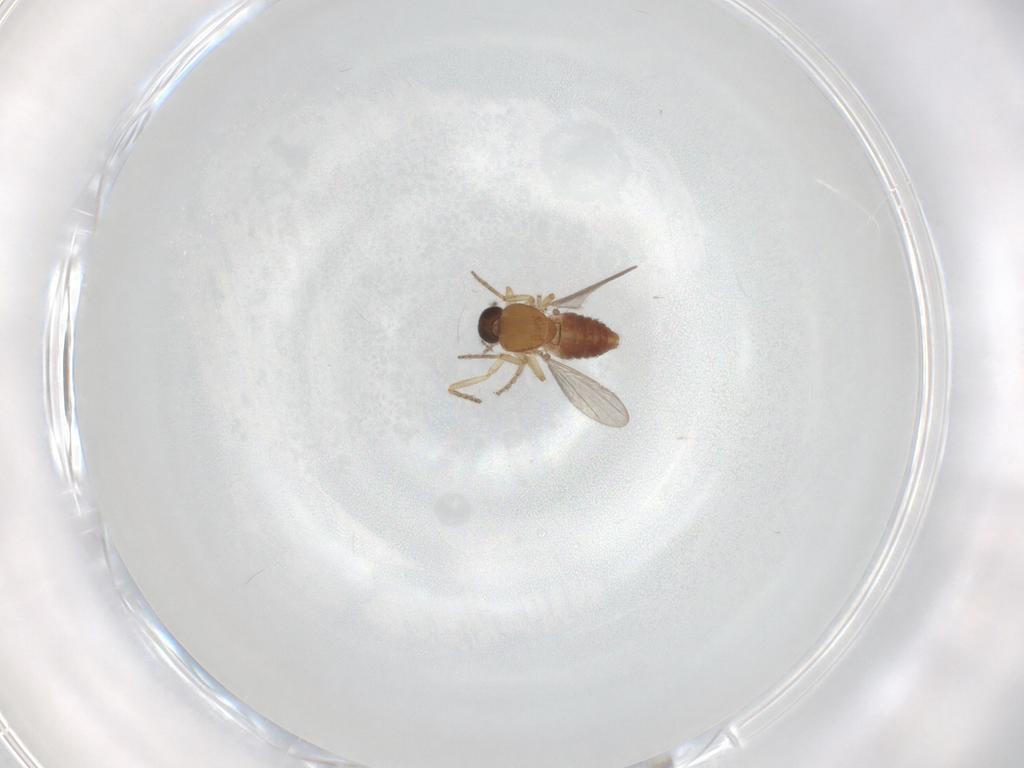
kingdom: Animalia
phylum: Arthropoda
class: Insecta
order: Diptera
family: Ceratopogonidae
